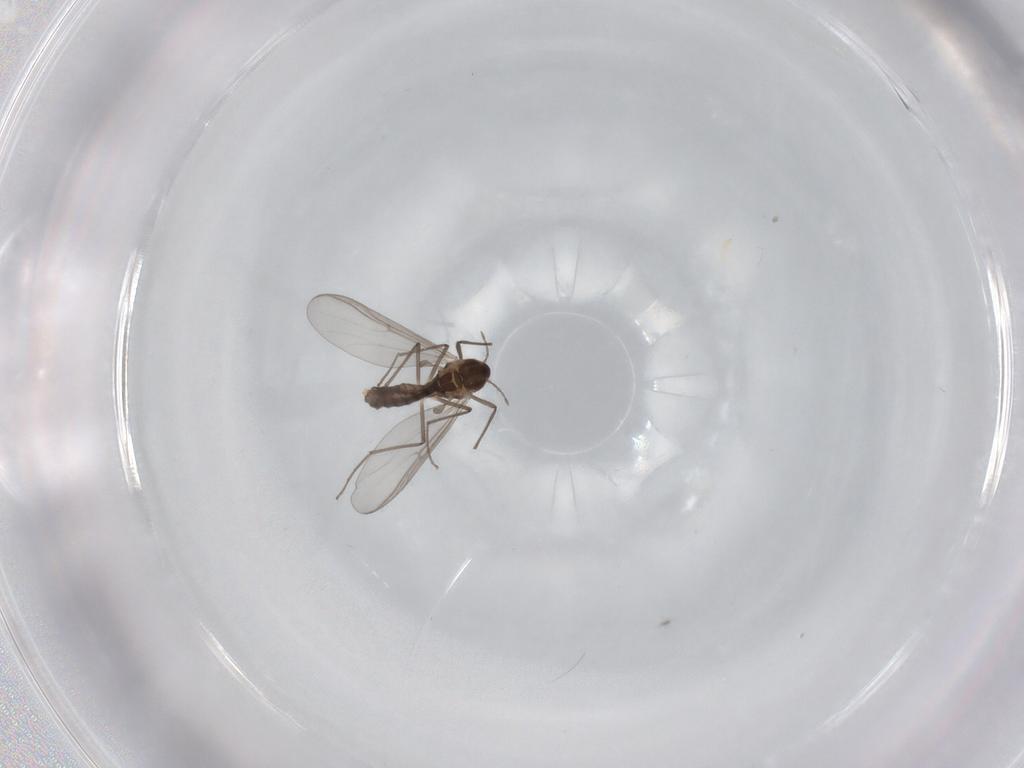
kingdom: Animalia
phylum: Arthropoda
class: Insecta
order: Diptera
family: Chironomidae
